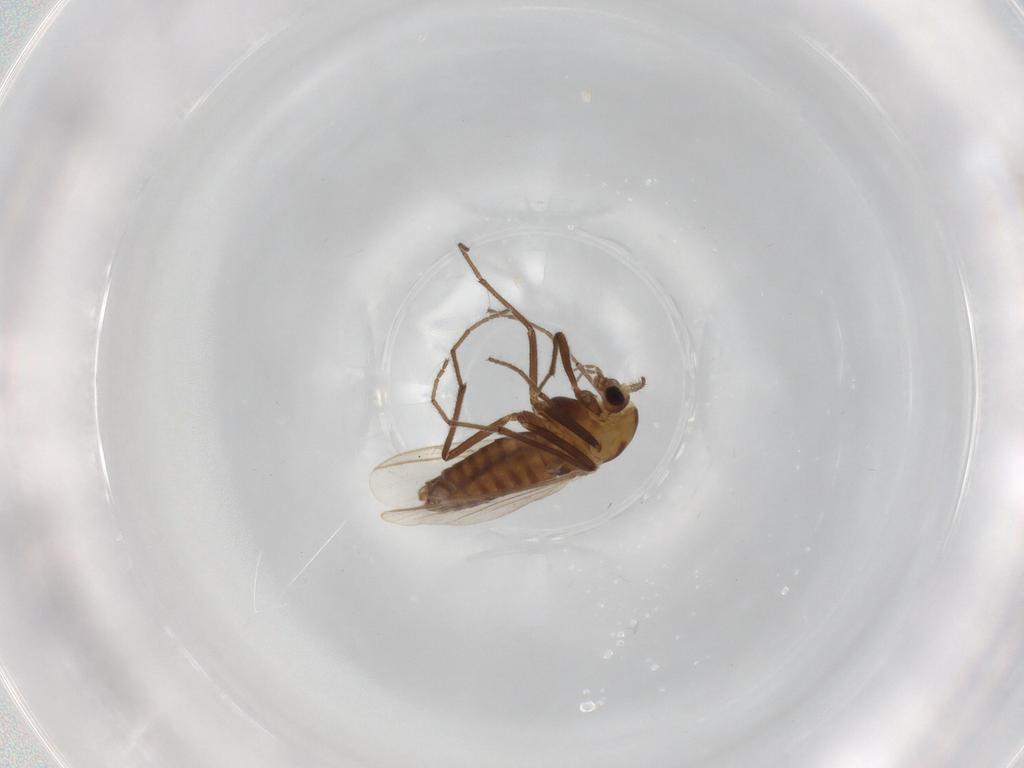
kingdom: Animalia
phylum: Arthropoda
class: Insecta
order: Diptera
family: Chironomidae
